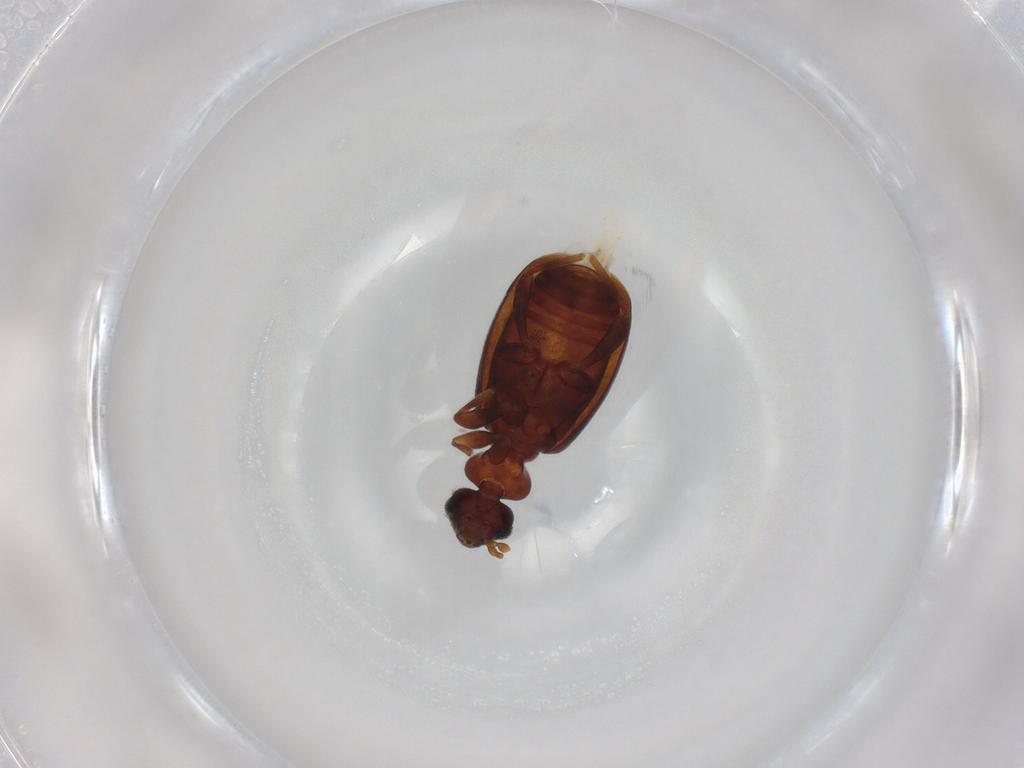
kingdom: Animalia
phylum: Arthropoda
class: Insecta
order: Coleoptera
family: Anthicidae
